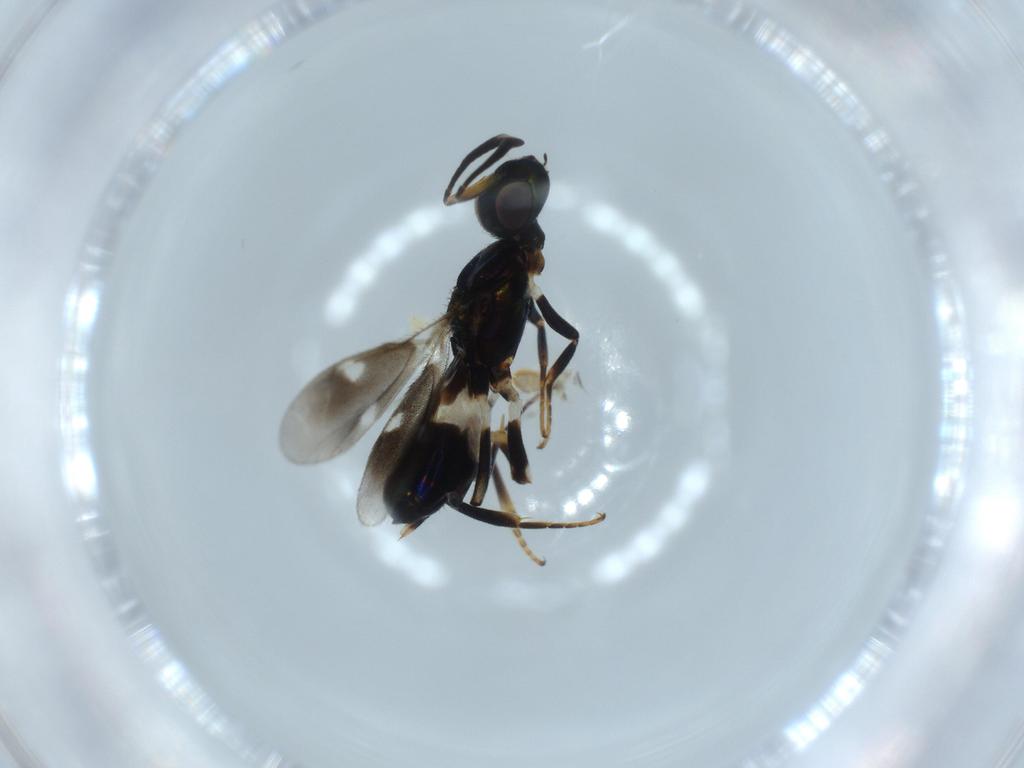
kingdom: Animalia
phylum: Arthropoda
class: Insecta
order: Hymenoptera
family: Eupelmidae
